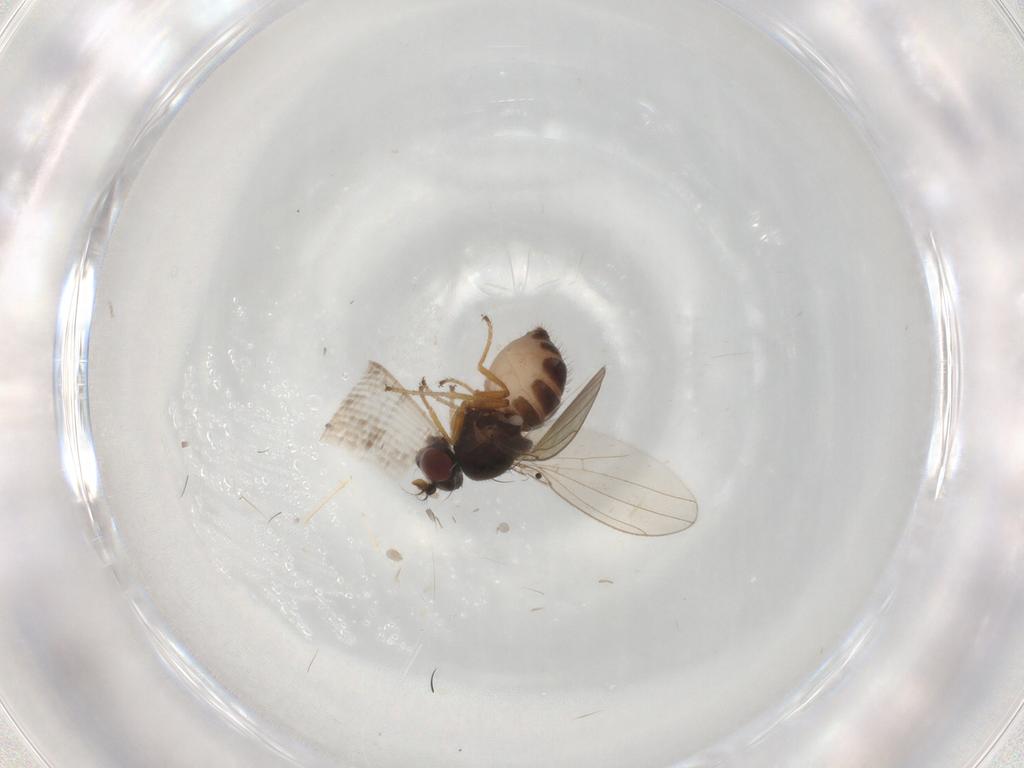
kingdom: Animalia
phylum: Arthropoda
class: Insecta
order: Diptera
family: Ephydridae
